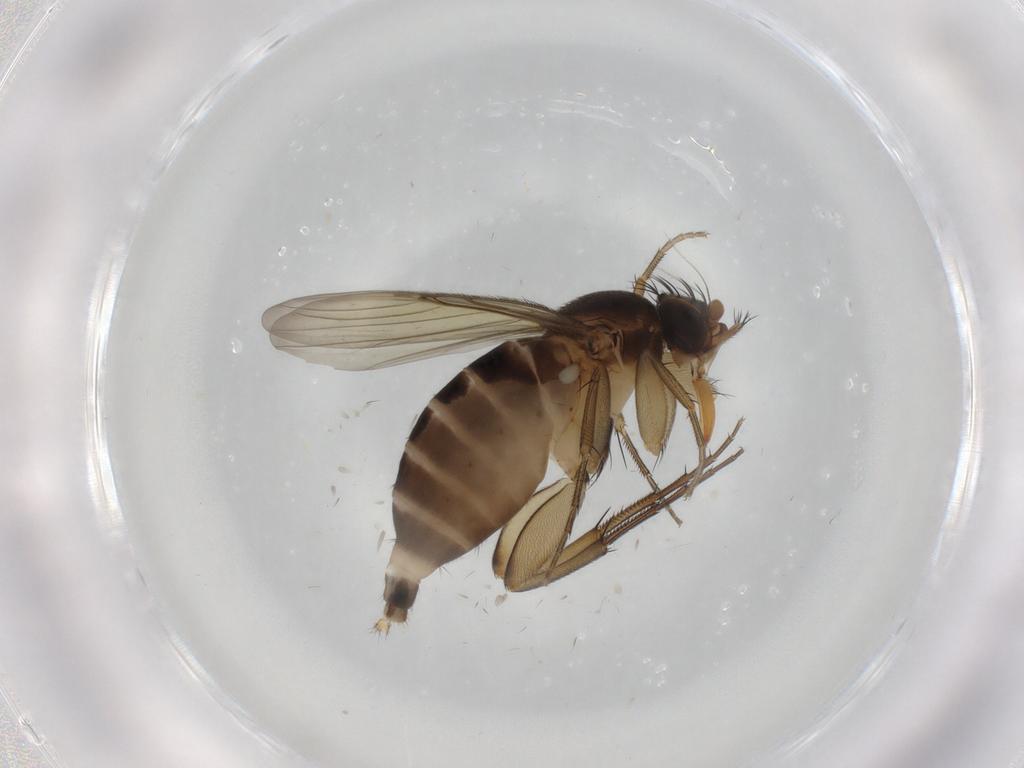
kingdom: Animalia
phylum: Arthropoda
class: Insecta
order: Diptera
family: Phoridae
